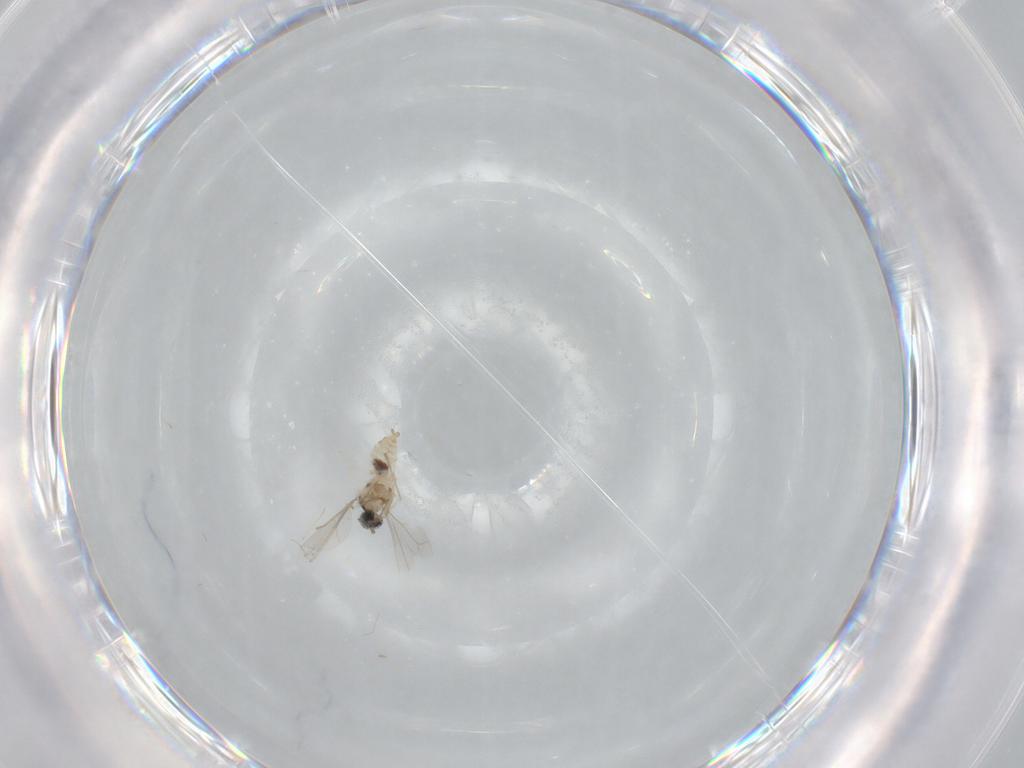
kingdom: Animalia
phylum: Arthropoda
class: Insecta
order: Diptera
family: Cecidomyiidae
